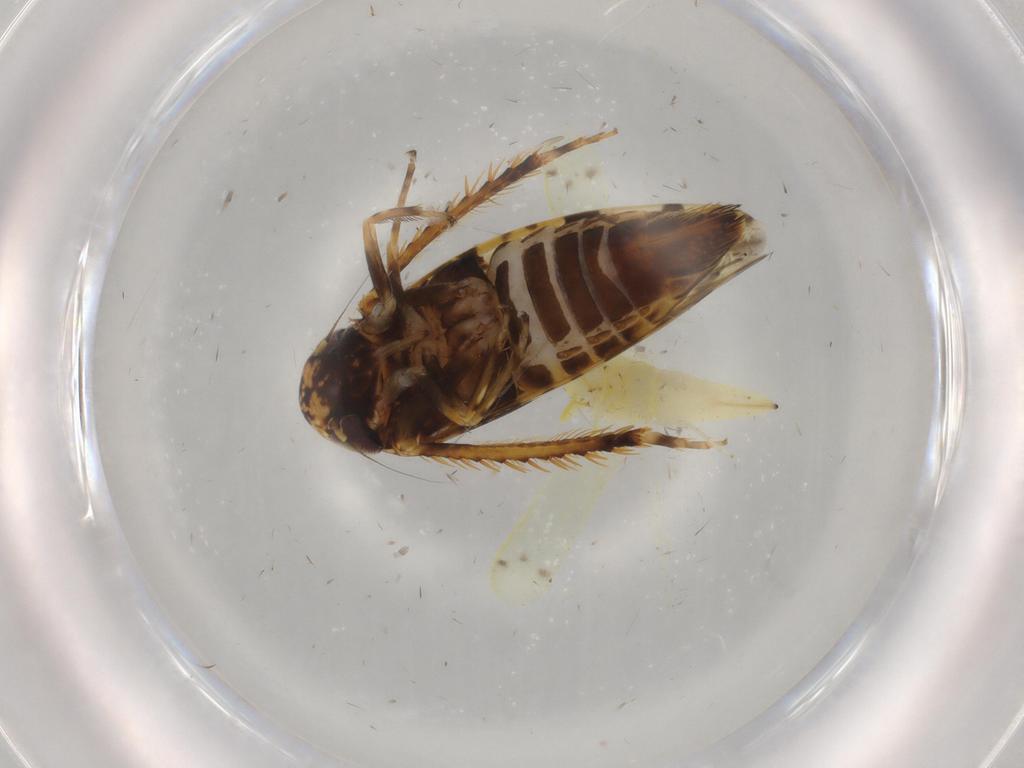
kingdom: Animalia
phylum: Arthropoda
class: Insecta
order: Hemiptera
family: Cicadellidae
